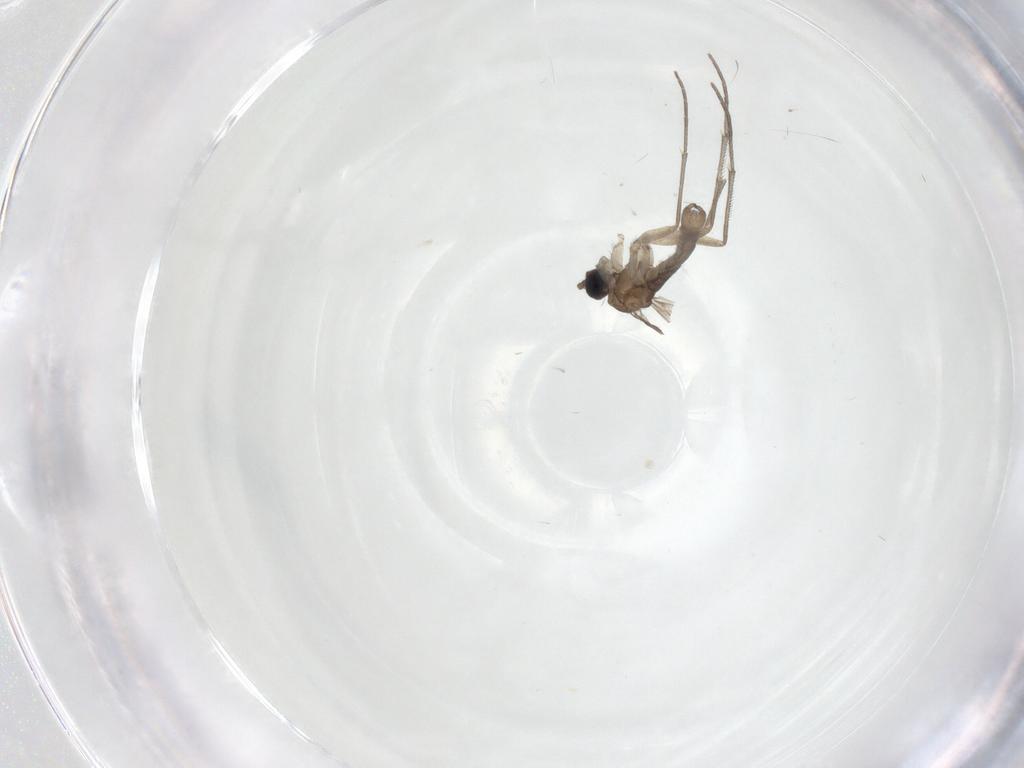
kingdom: Animalia
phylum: Arthropoda
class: Insecta
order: Diptera
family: Sciaridae
